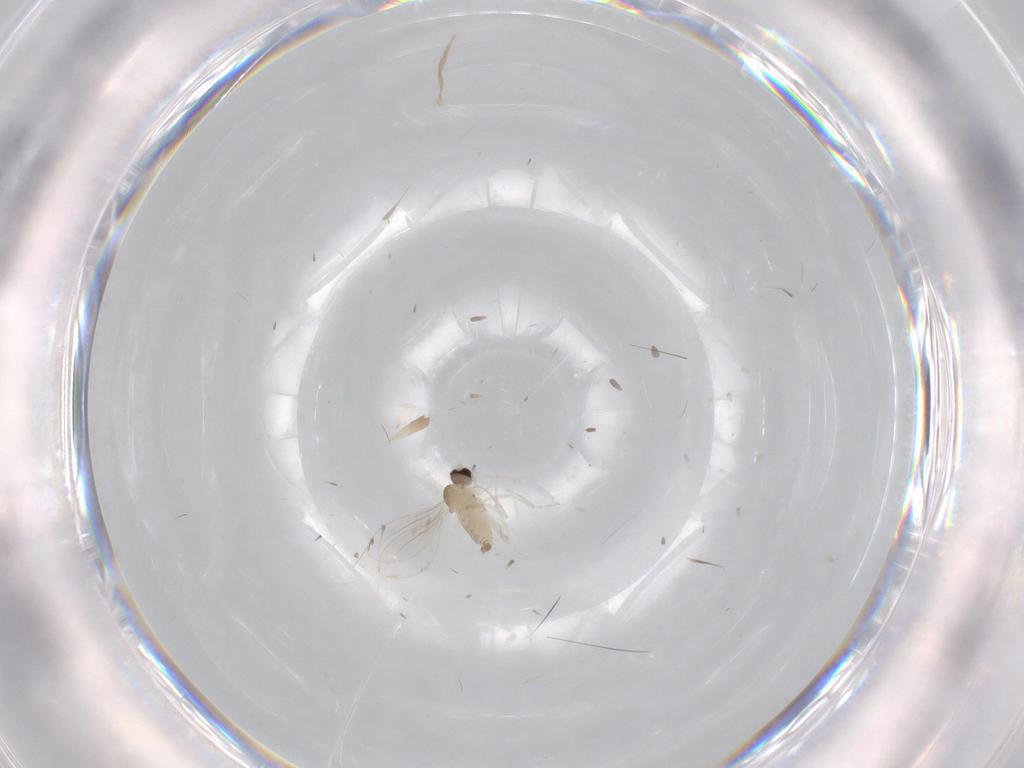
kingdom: Animalia
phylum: Arthropoda
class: Insecta
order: Diptera
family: Cecidomyiidae
